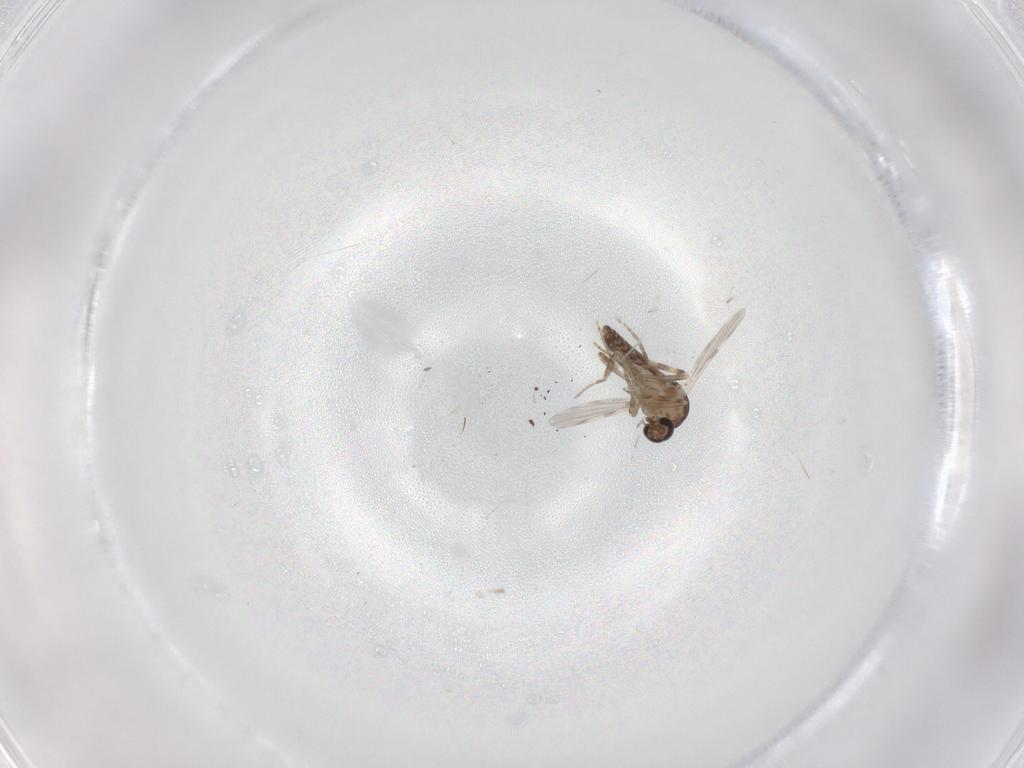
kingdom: Animalia
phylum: Arthropoda
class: Insecta
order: Diptera
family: Ceratopogonidae
